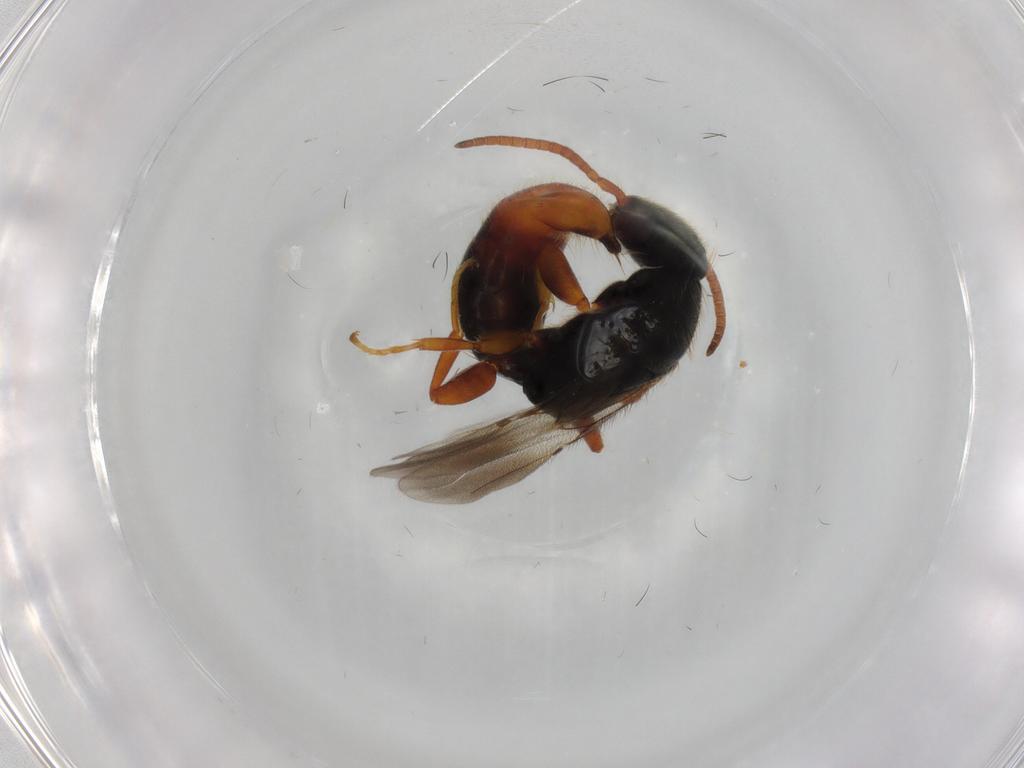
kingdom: Animalia
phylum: Arthropoda
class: Insecta
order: Hymenoptera
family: Bethylidae
